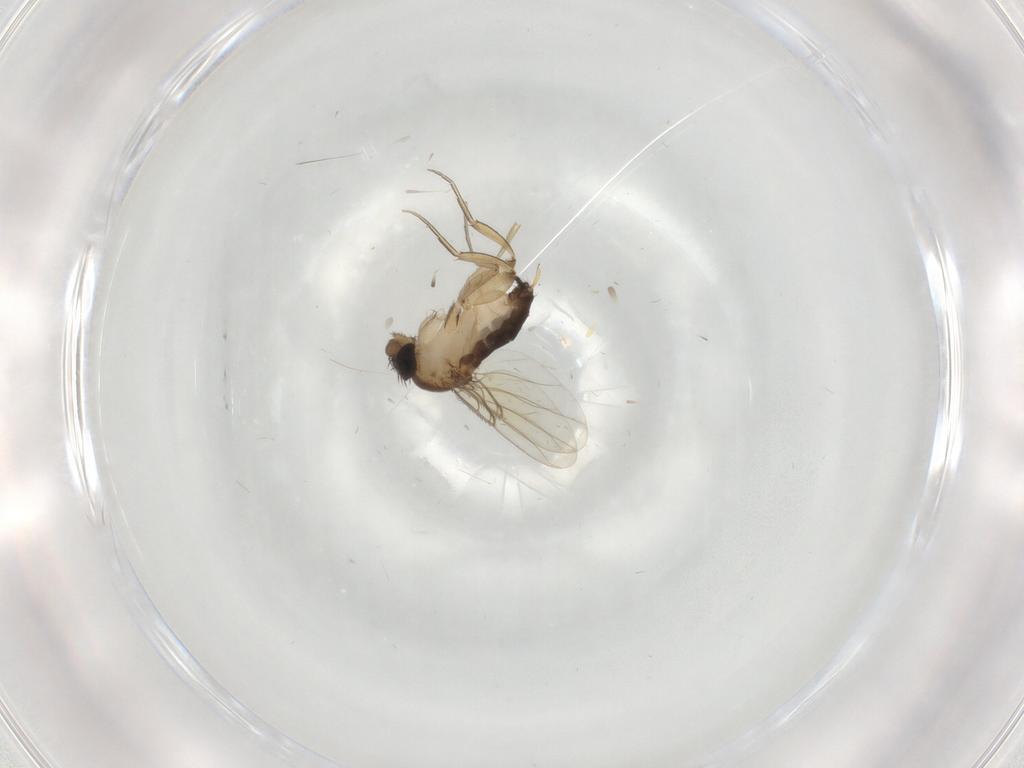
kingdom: Animalia
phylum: Arthropoda
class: Insecta
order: Diptera
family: Phoridae
